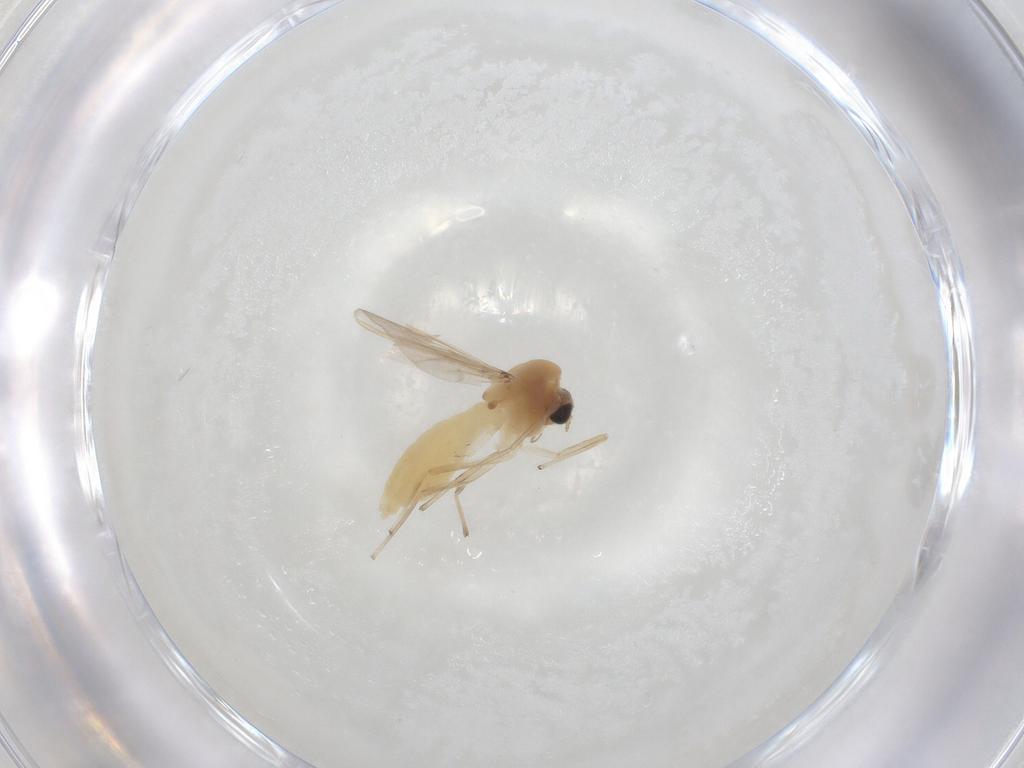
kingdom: Animalia
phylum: Arthropoda
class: Insecta
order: Diptera
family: Chironomidae
